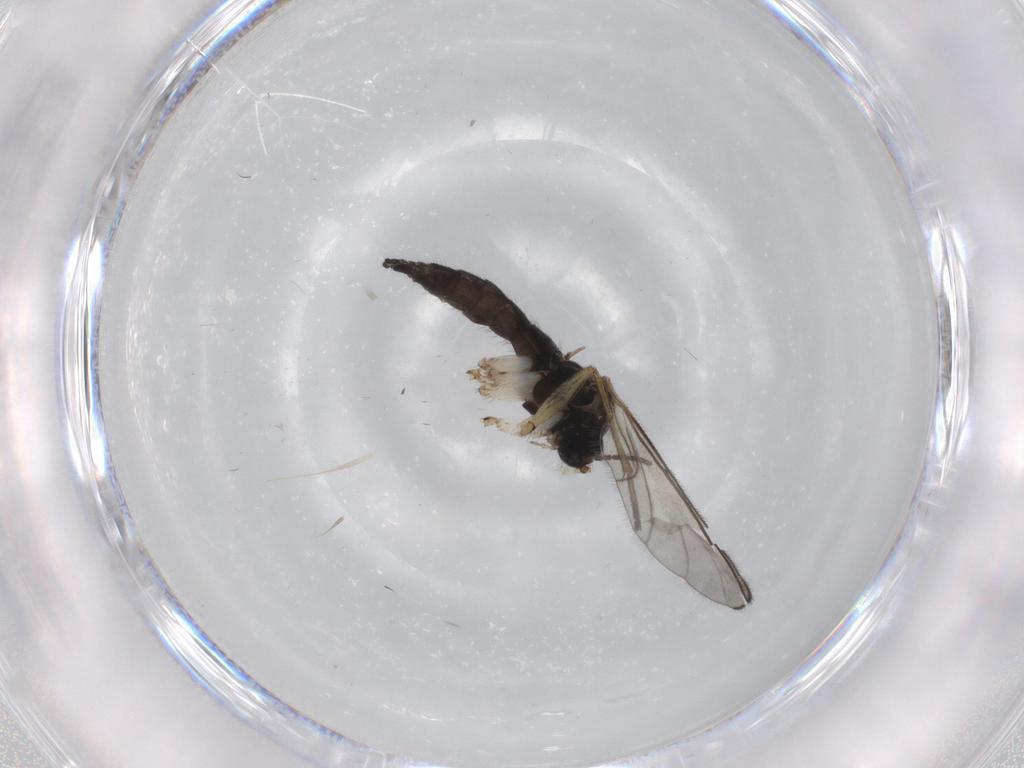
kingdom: Animalia
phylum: Arthropoda
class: Insecta
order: Diptera
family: Sciaridae
